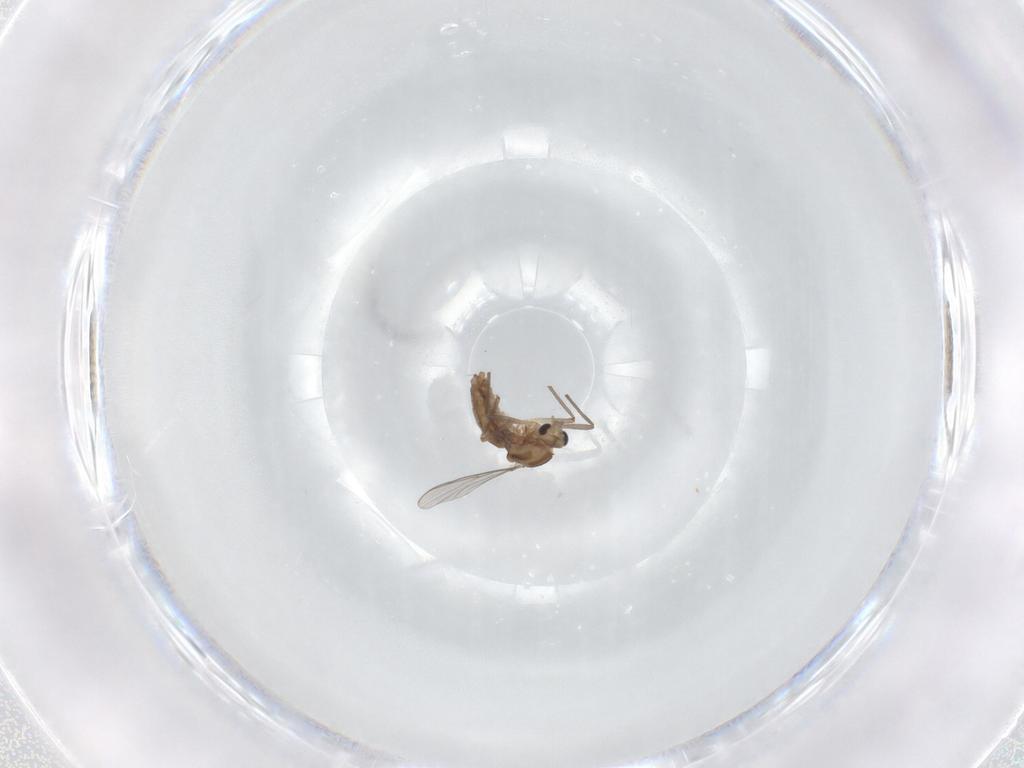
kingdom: Animalia
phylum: Arthropoda
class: Insecta
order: Diptera
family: Chironomidae
